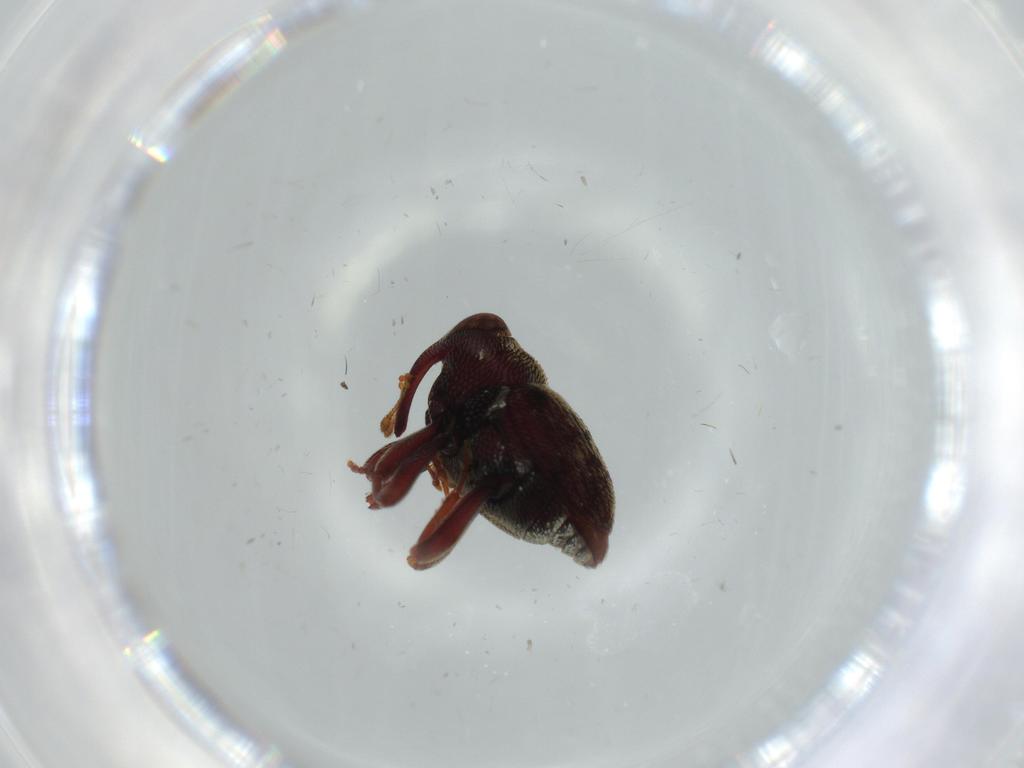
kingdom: Animalia
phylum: Arthropoda
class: Insecta
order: Coleoptera
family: Curculionidae
